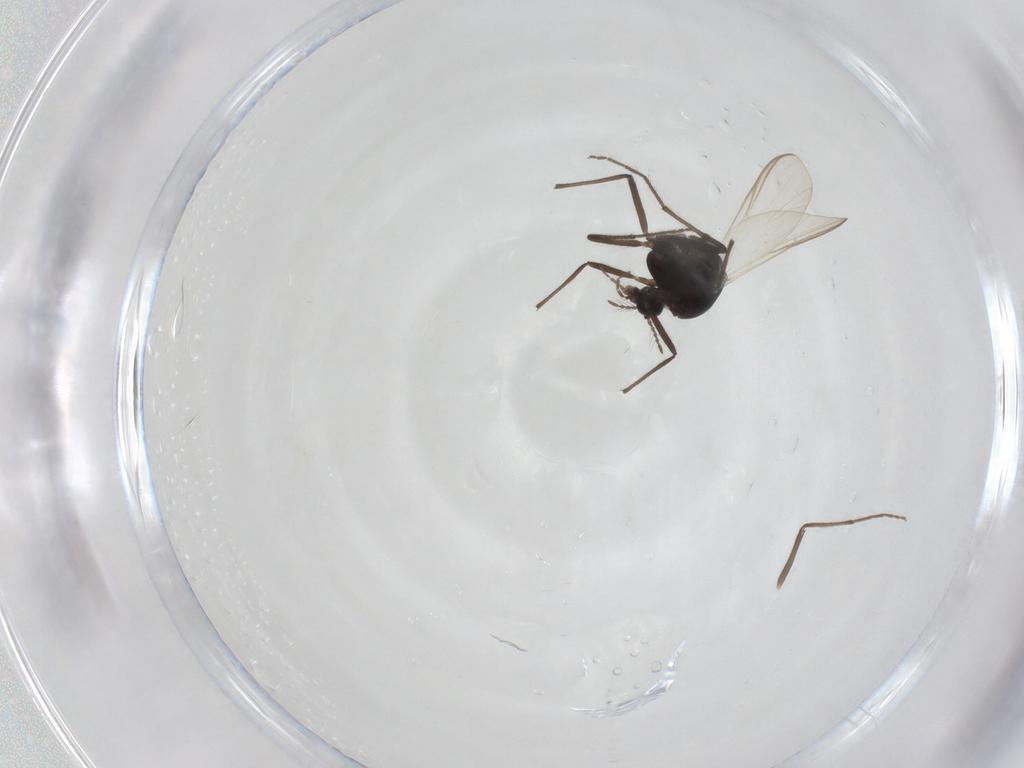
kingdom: Animalia
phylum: Arthropoda
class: Insecta
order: Diptera
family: Chironomidae
